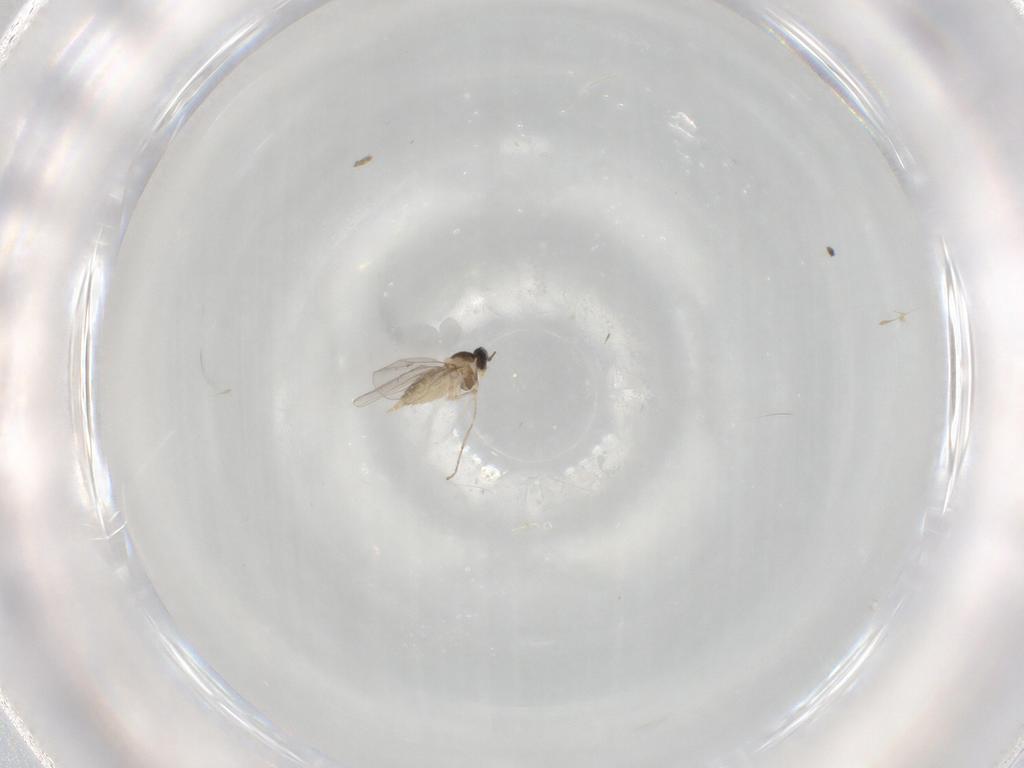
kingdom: Animalia
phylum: Arthropoda
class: Insecta
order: Diptera
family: Cecidomyiidae
